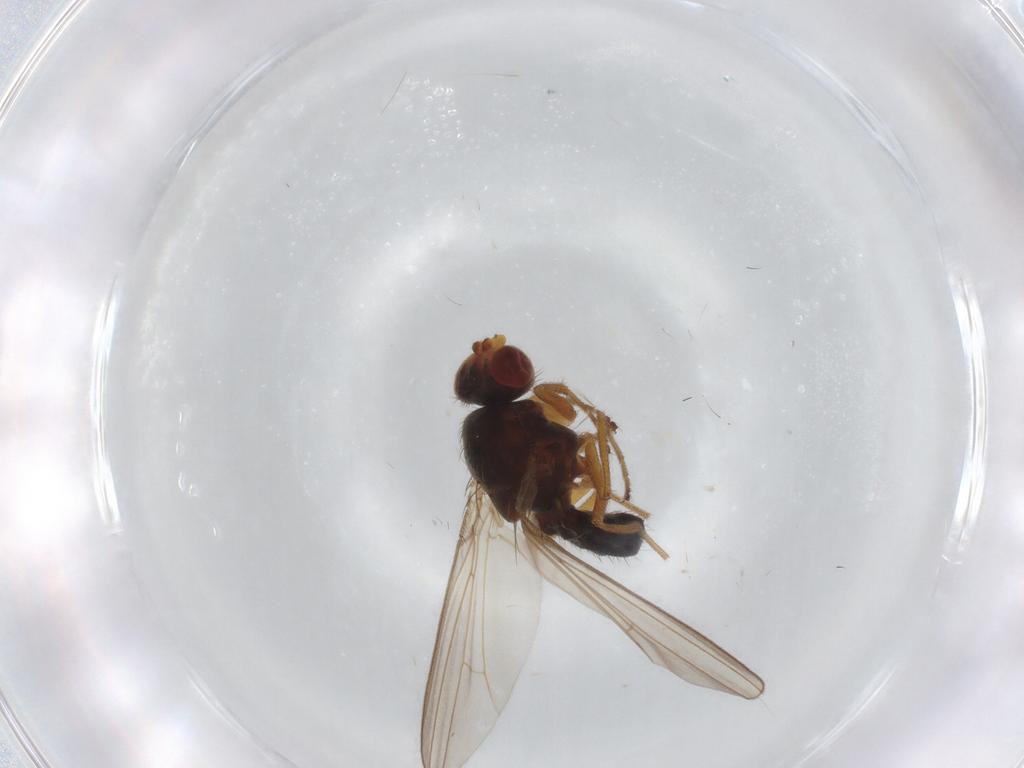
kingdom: Animalia
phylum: Arthropoda
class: Insecta
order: Diptera
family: Drosophilidae
